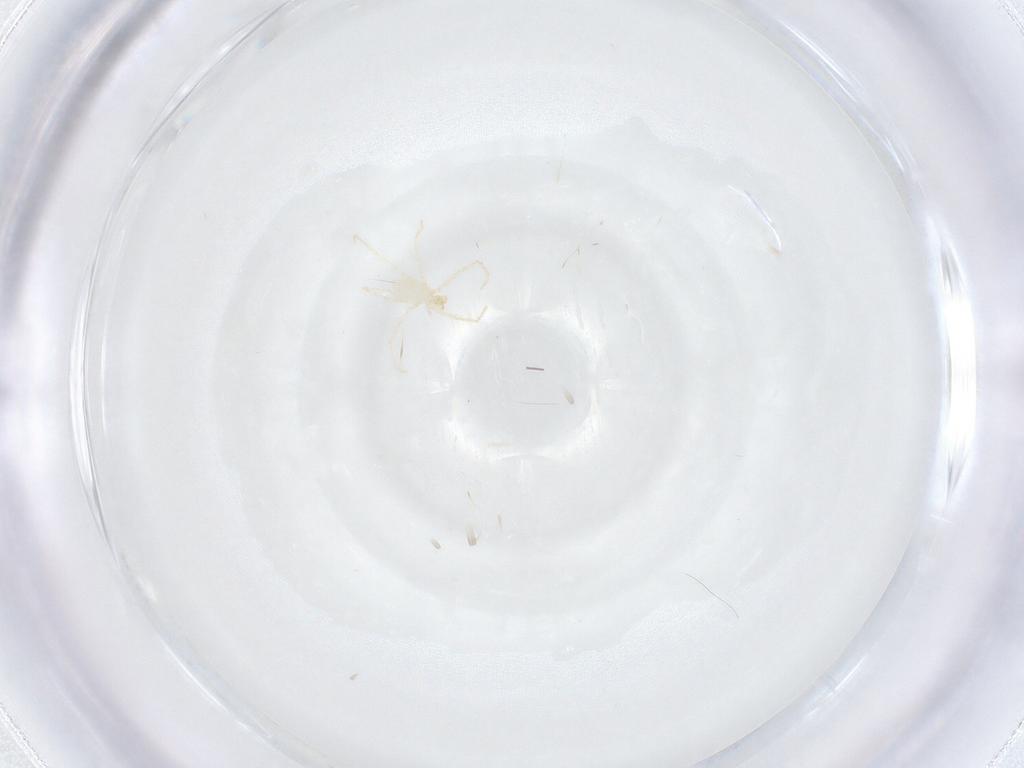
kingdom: Animalia
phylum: Arthropoda
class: Arachnida
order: Trombidiformes
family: Erythraeidae
